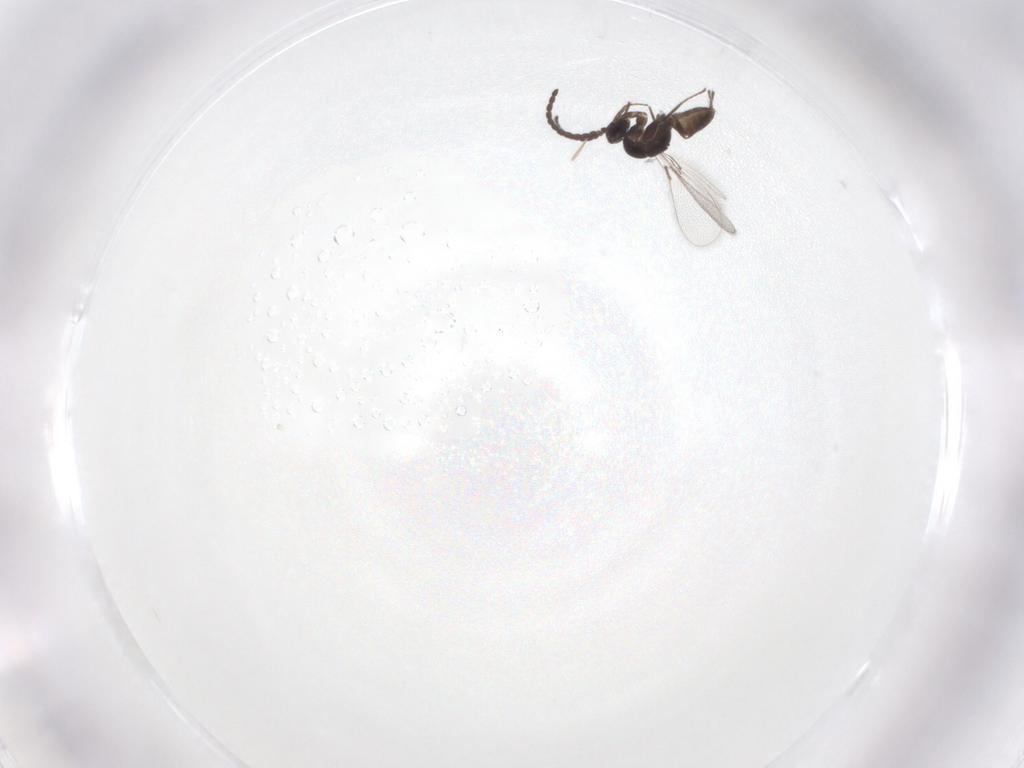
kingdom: Animalia
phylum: Arthropoda
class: Insecta
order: Hymenoptera
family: Mymaridae
